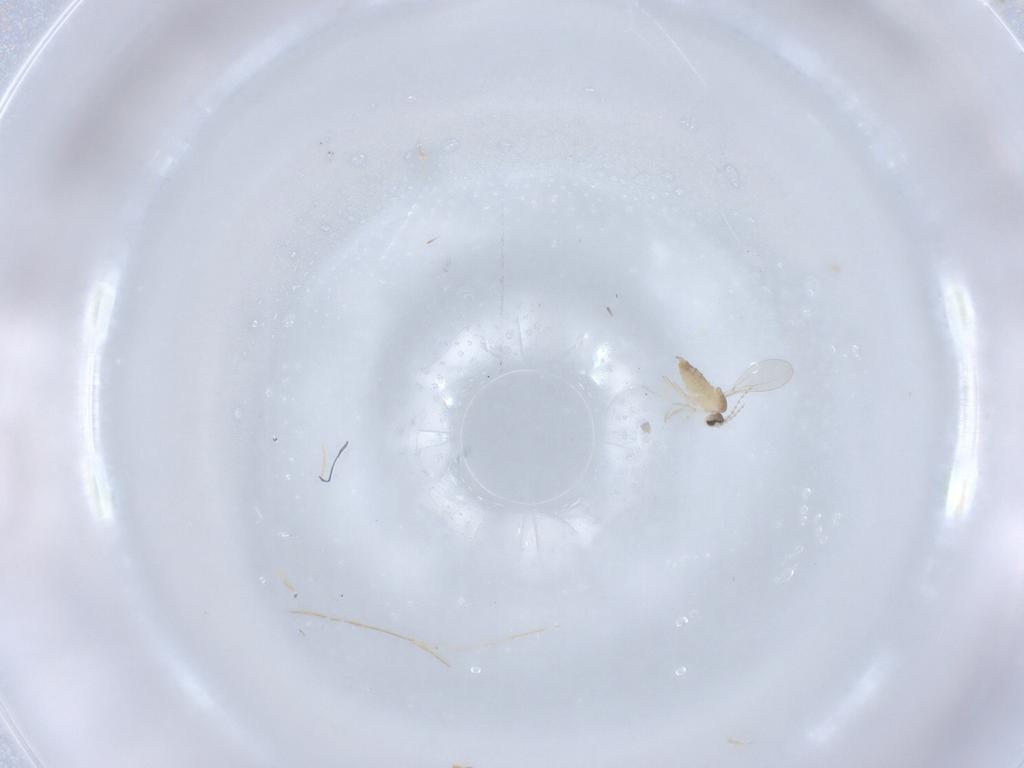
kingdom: Animalia
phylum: Arthropoda
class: Insecta
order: Diptera
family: Cecidomyiidae
